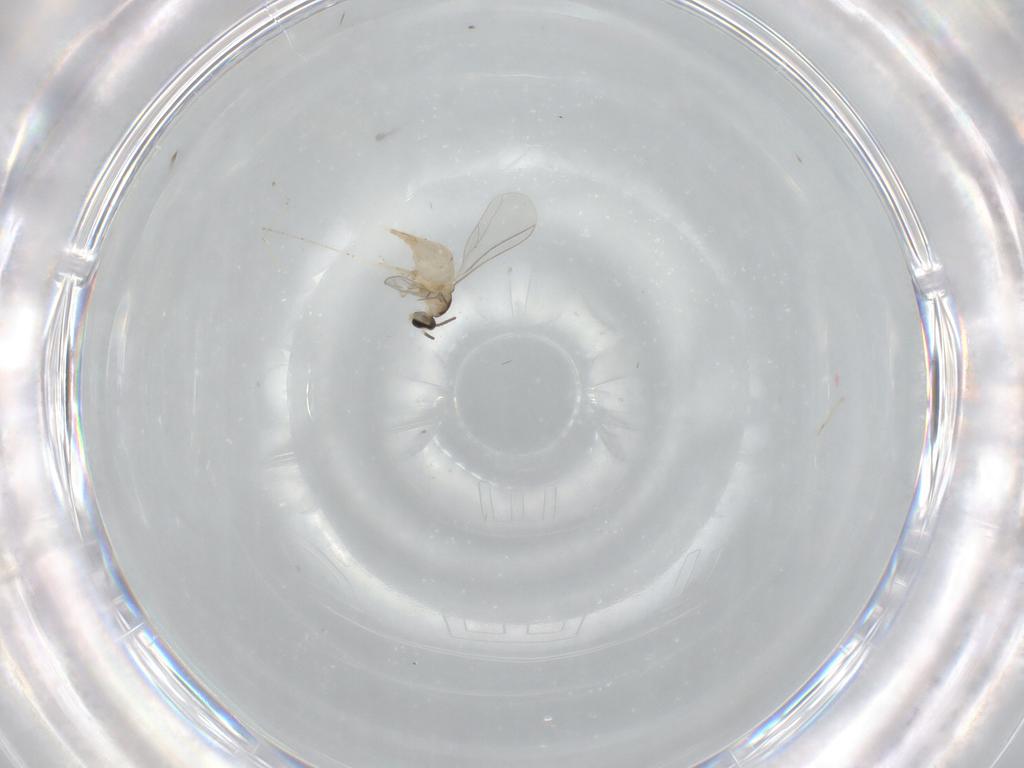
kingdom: Animalia
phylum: Arthropoda
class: Insecta
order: Diptera
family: Cecidomyiidae
